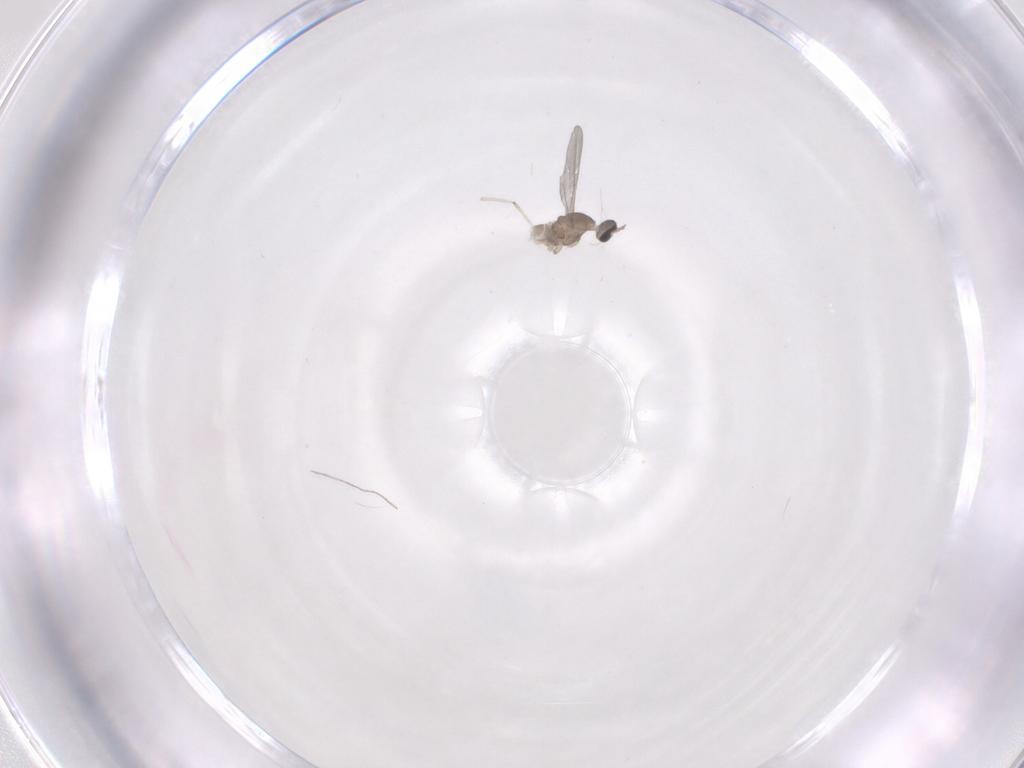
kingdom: Animalia
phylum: Arthropoda
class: Insecta
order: Diptera
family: Cecidomyiidae
